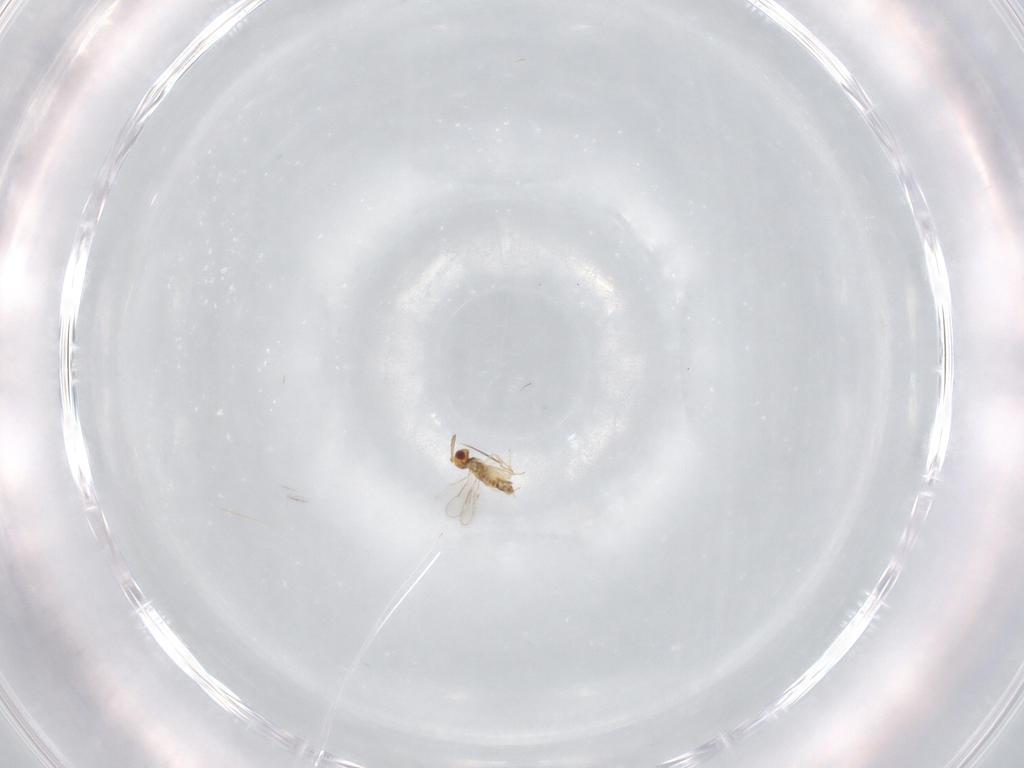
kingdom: Animalia
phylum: Arthropoda
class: Insecta
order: Hymenoptera
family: Aphelinidae
